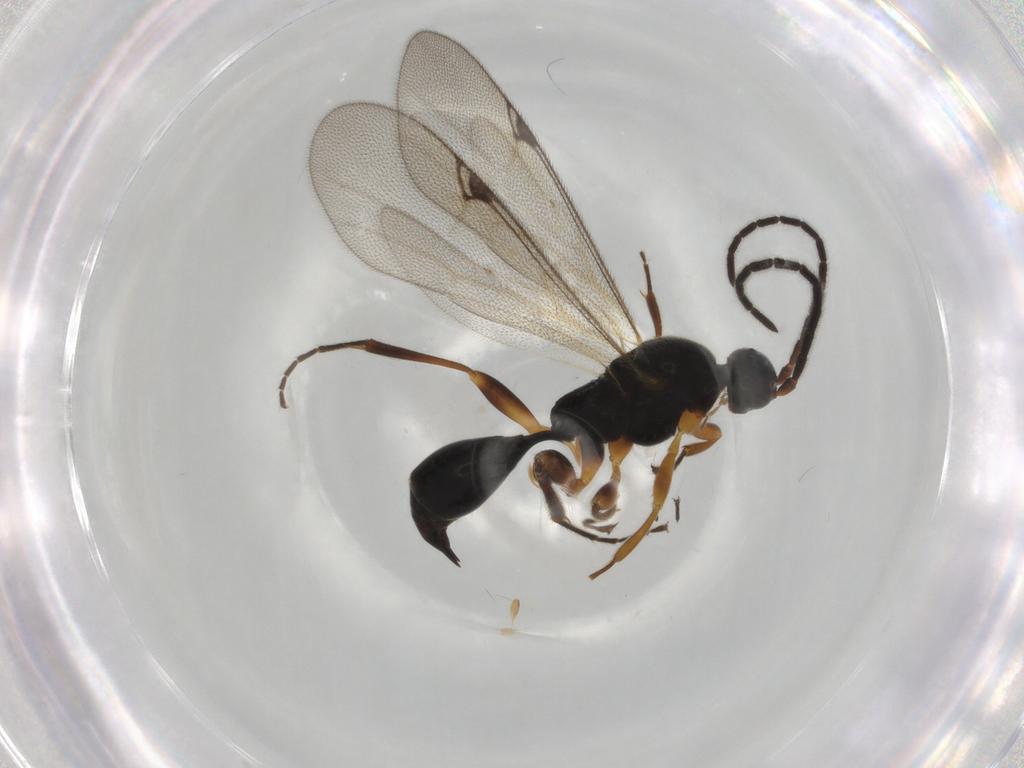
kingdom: Animalia
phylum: Arthropoda
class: Insecta
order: Hymenoptera
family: Proctotrupidae
